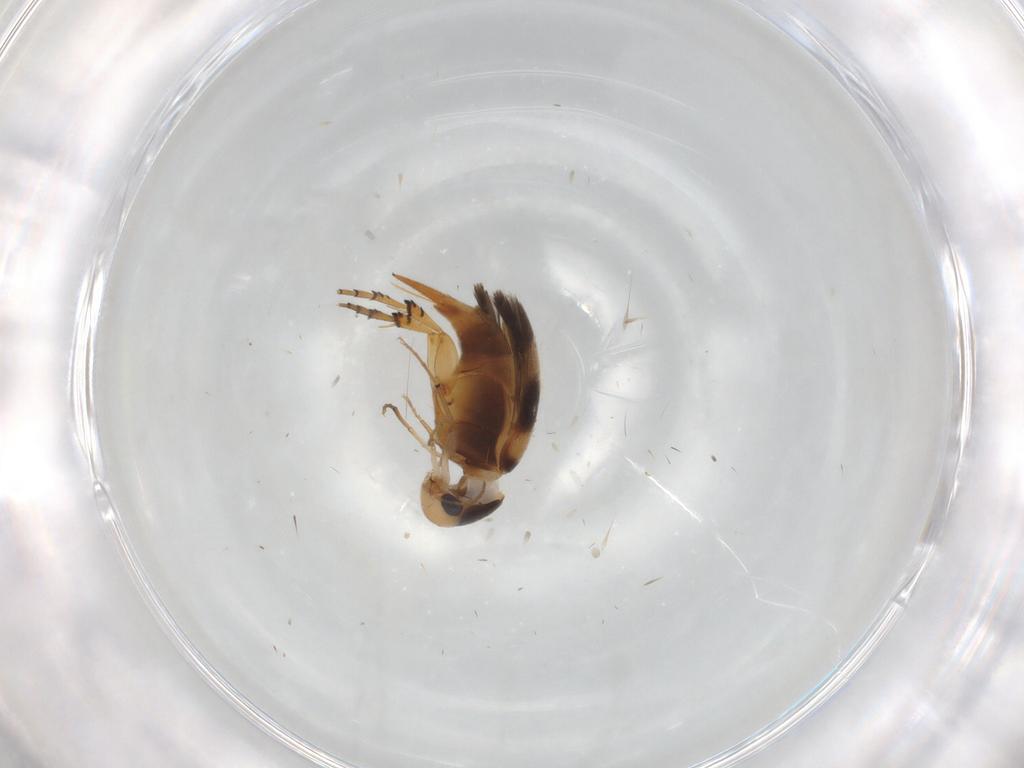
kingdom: Animalia
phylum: Arthropoda
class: Insecta
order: Coleoptera
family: Mordellidae
